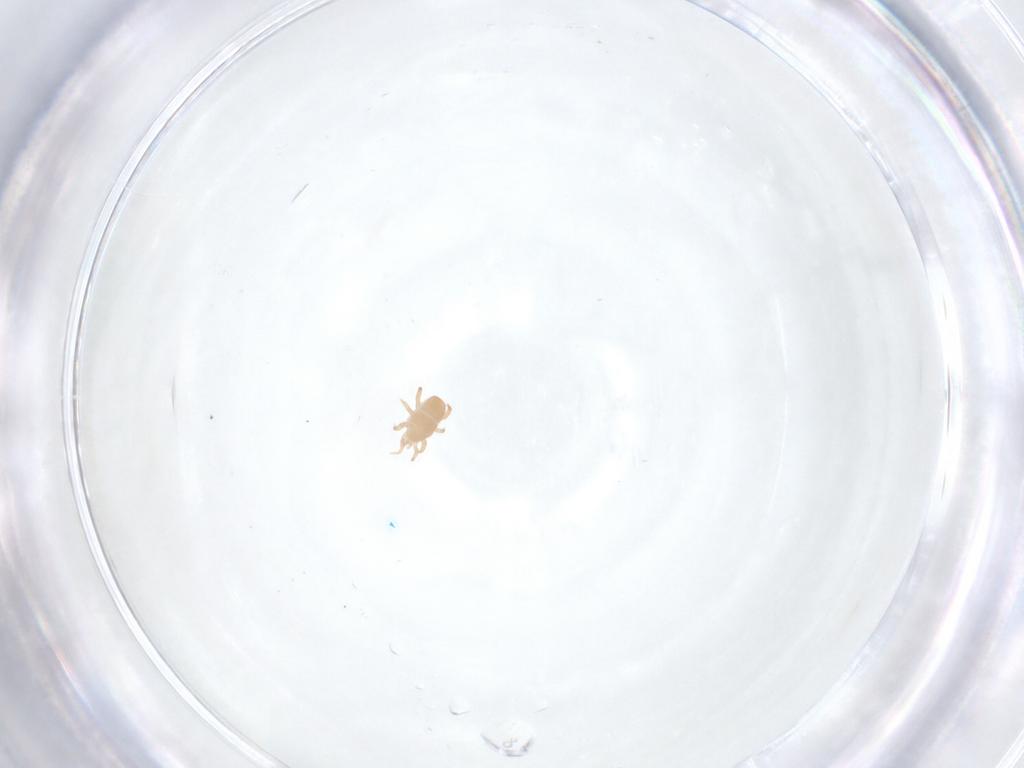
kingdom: Animalia
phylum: Arthropoda
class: Arachnida
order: Mesostigmata
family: Halolaelapidae
